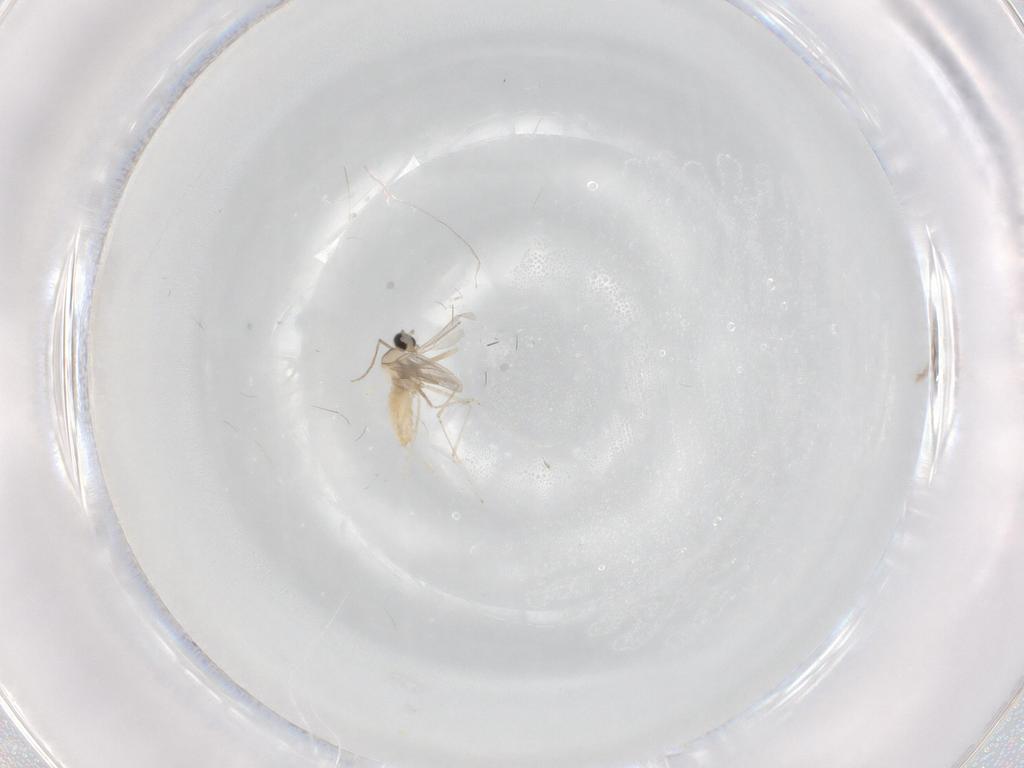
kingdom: Animalia
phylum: Arthropoda
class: Insecta
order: Diptera
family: Cecidomyiidae
